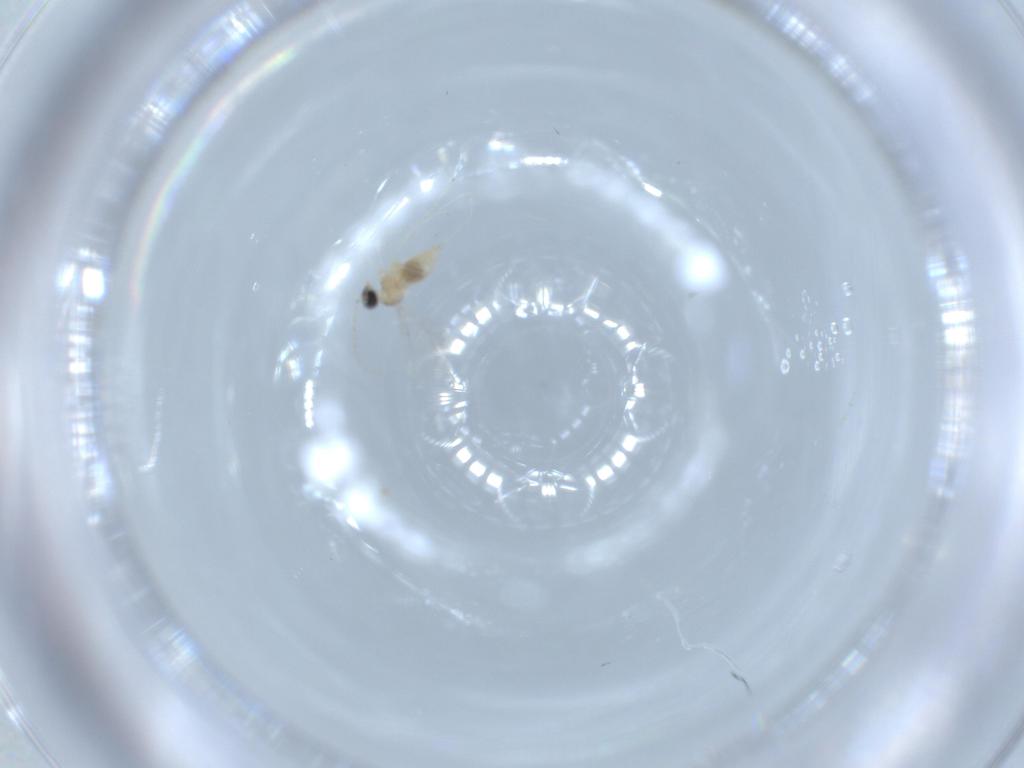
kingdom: Animalia
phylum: Arthropoda
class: Insecta
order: Diptera
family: Cecidomyiidae
